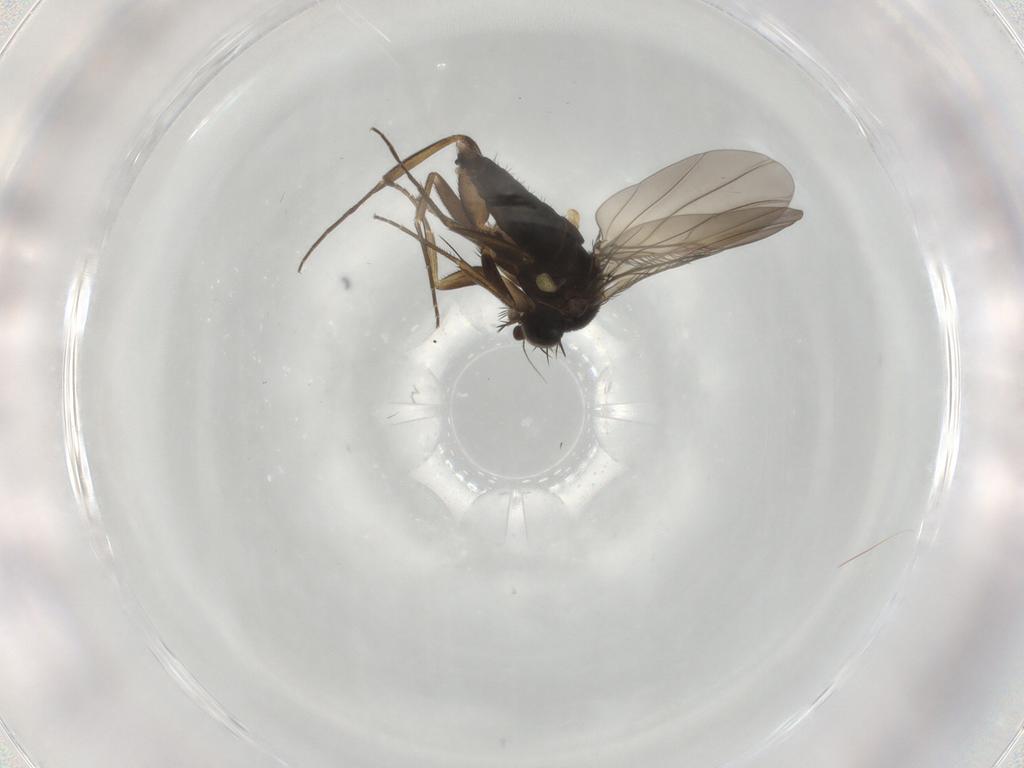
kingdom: Animalia
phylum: Arthropoda
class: Insecta
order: Diptera
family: Phoridae
